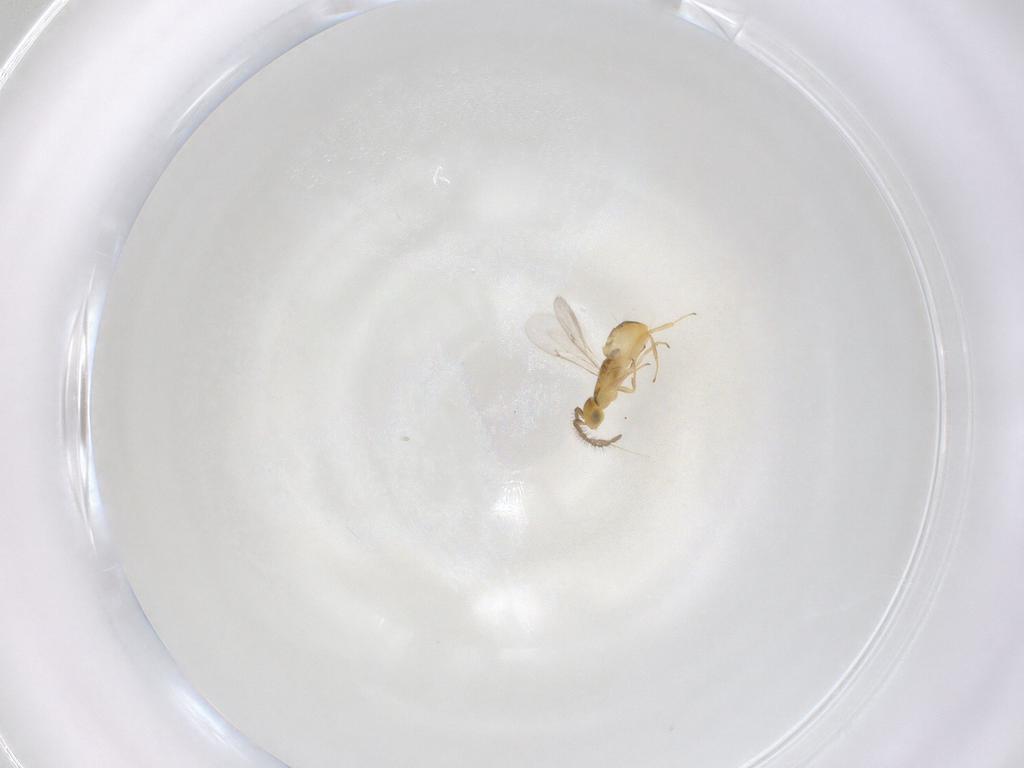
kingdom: Animalia
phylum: Arthropoda
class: Insecta
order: Hymenoptera
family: Encyrtidae
